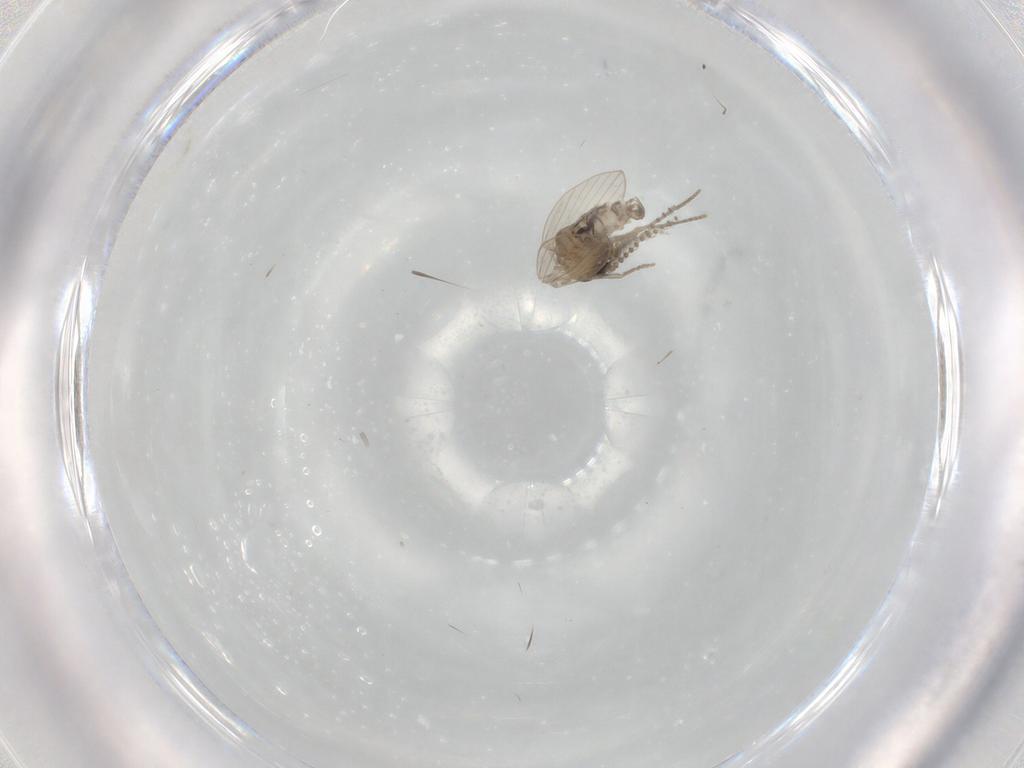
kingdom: Animalia
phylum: Arthropoda
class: Insecta
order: Diptera
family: Psychodidae
